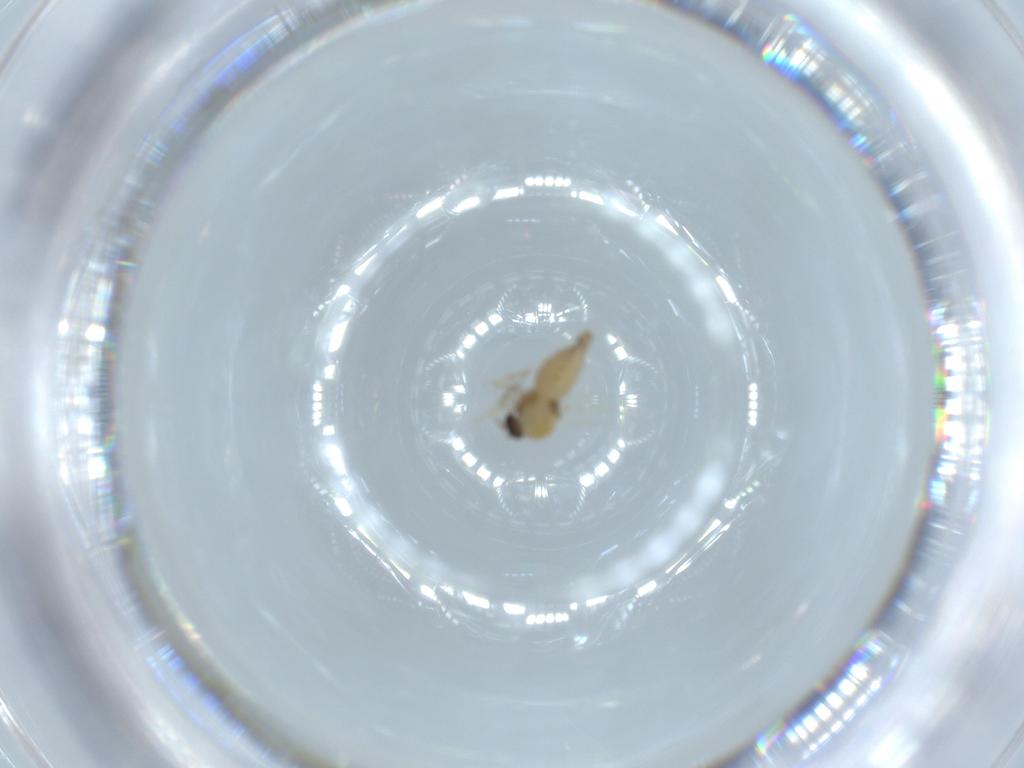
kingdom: Animalia
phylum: Arthropoda
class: Insecta
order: Diptera
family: Ceratopogonidae
